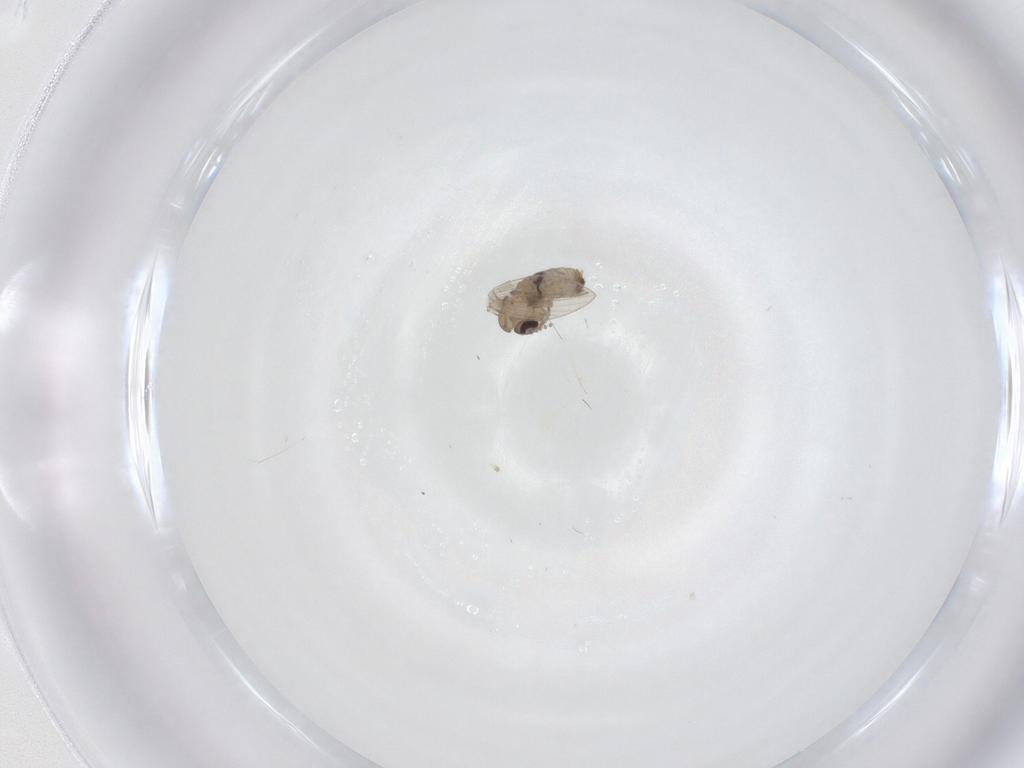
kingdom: Animalia
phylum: Arthropoda
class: Insecta
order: Diptera
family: Psychodidae
